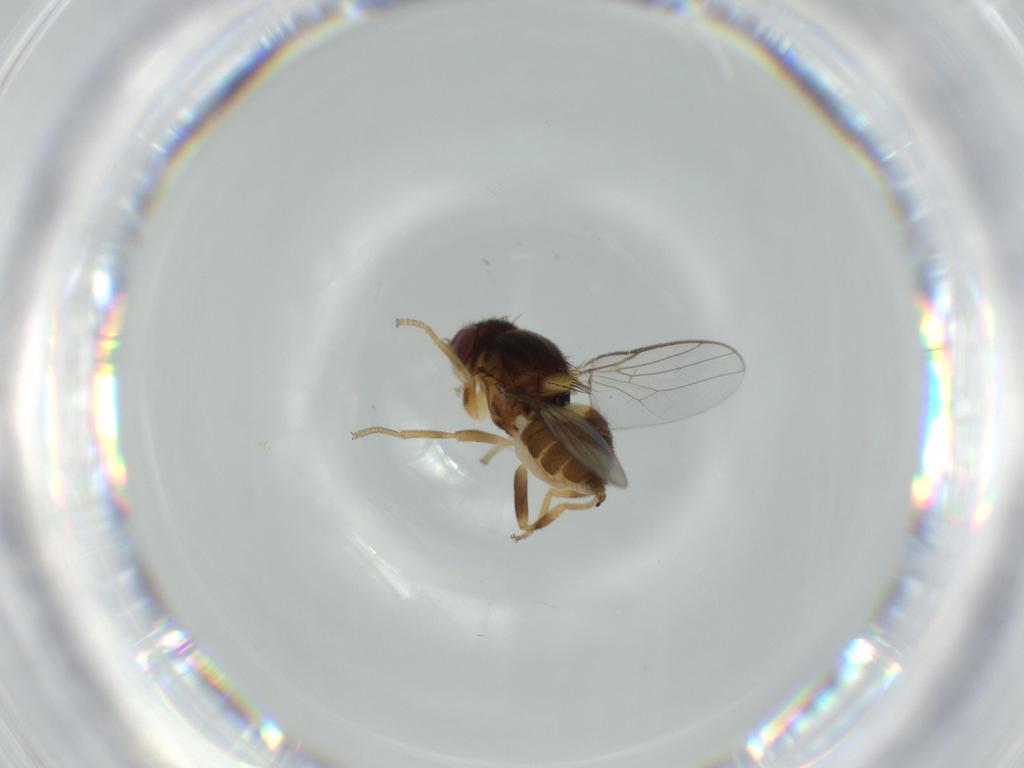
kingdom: Animalia
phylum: Arthropoda
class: Insecta
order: Diptera
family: Chloropidae
